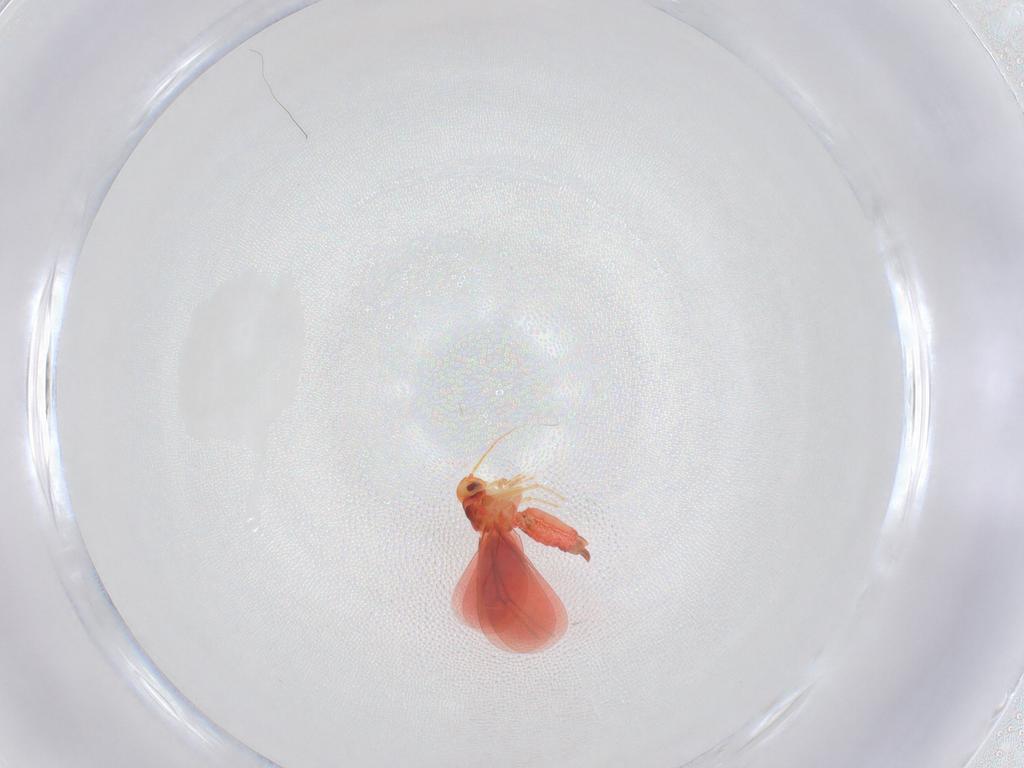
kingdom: Animalia
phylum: Arthropoda
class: Insecta
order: Hemiptera
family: Aleyrodidae
